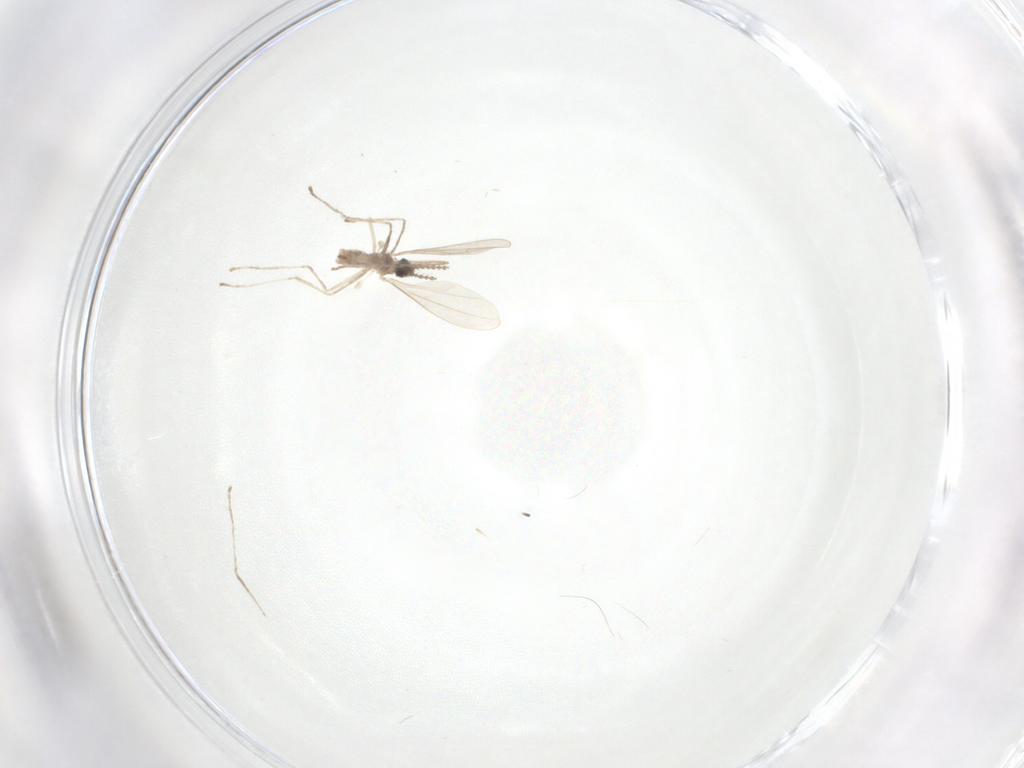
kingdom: Animalia
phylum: Arthropoda
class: Insecta
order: Diptera
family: Cecidomyiidae
